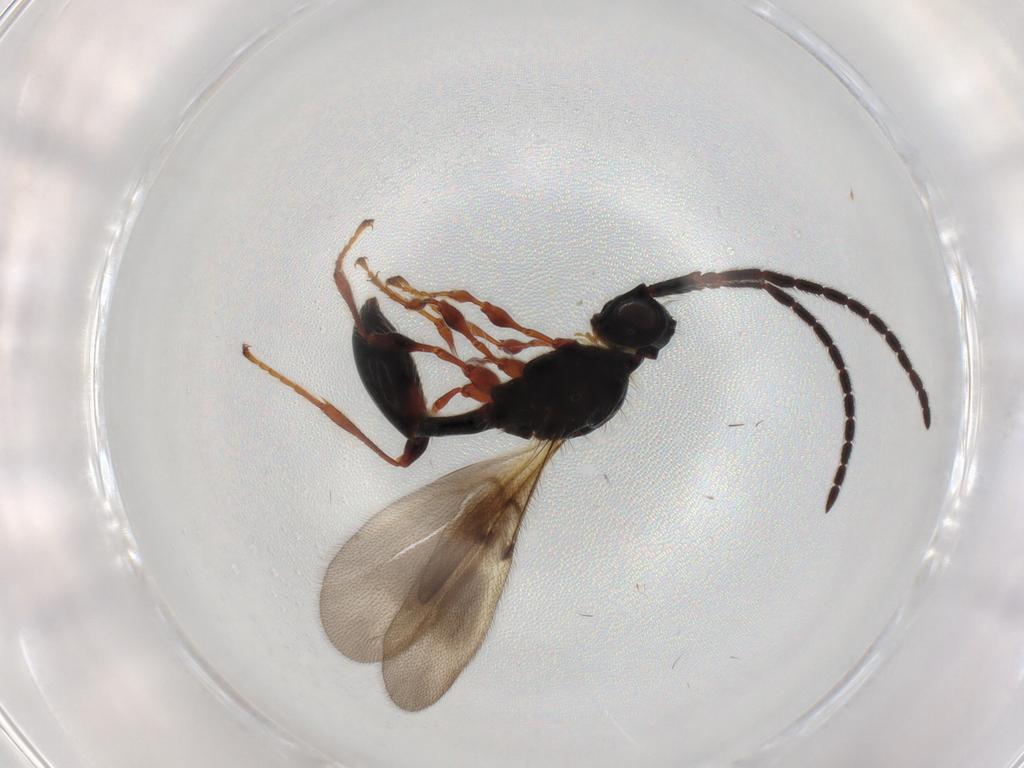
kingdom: Animalia
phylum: Arthropoda
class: Insecta
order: Hymenoptera
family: Diapriidae
